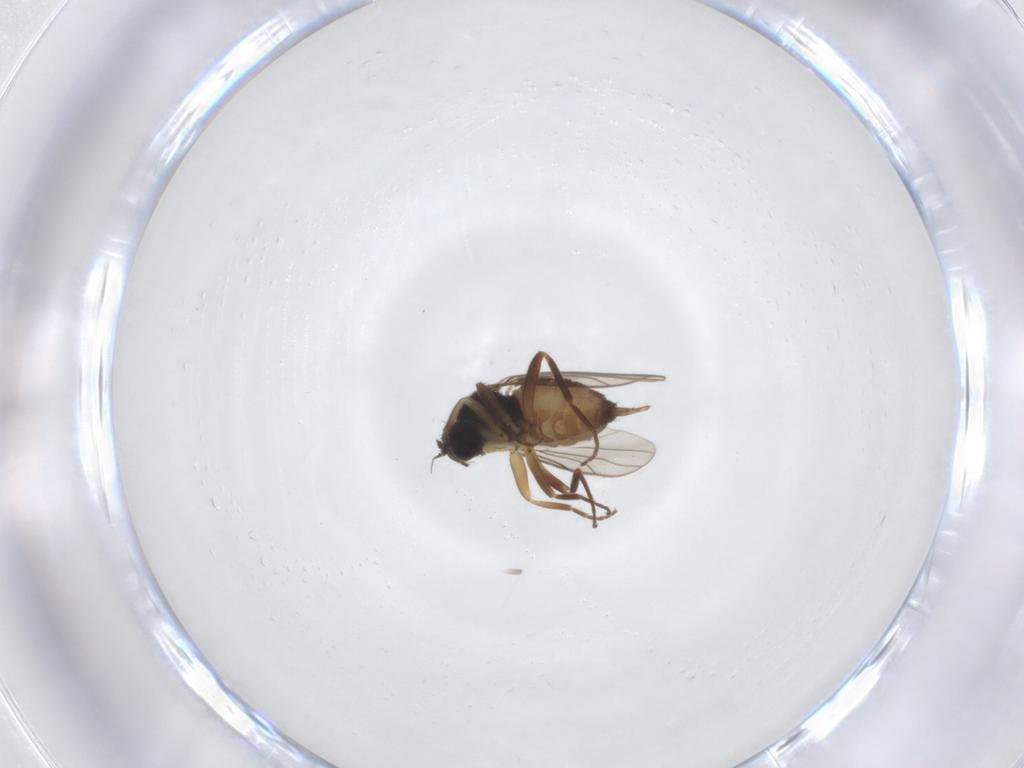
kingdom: Animalia
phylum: Arthropoda
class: Insecta
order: Diptera
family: Hybotidae
